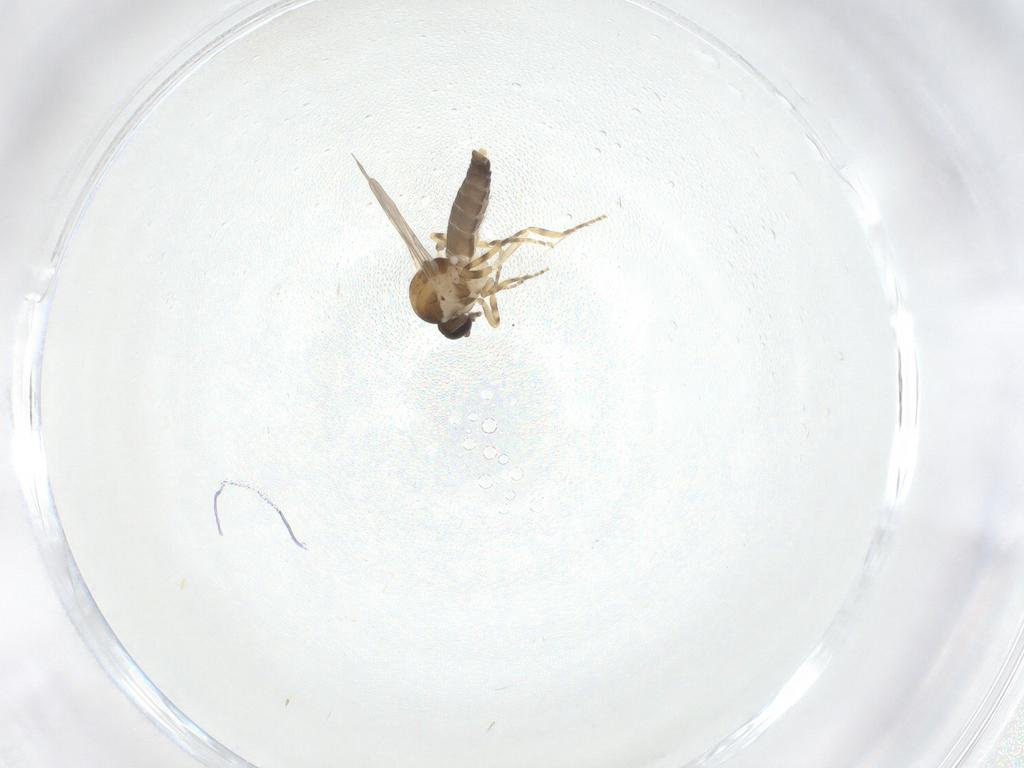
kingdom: Animalia
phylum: Arthropoda
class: Insecta
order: Diptera
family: Ceratopogonidae
